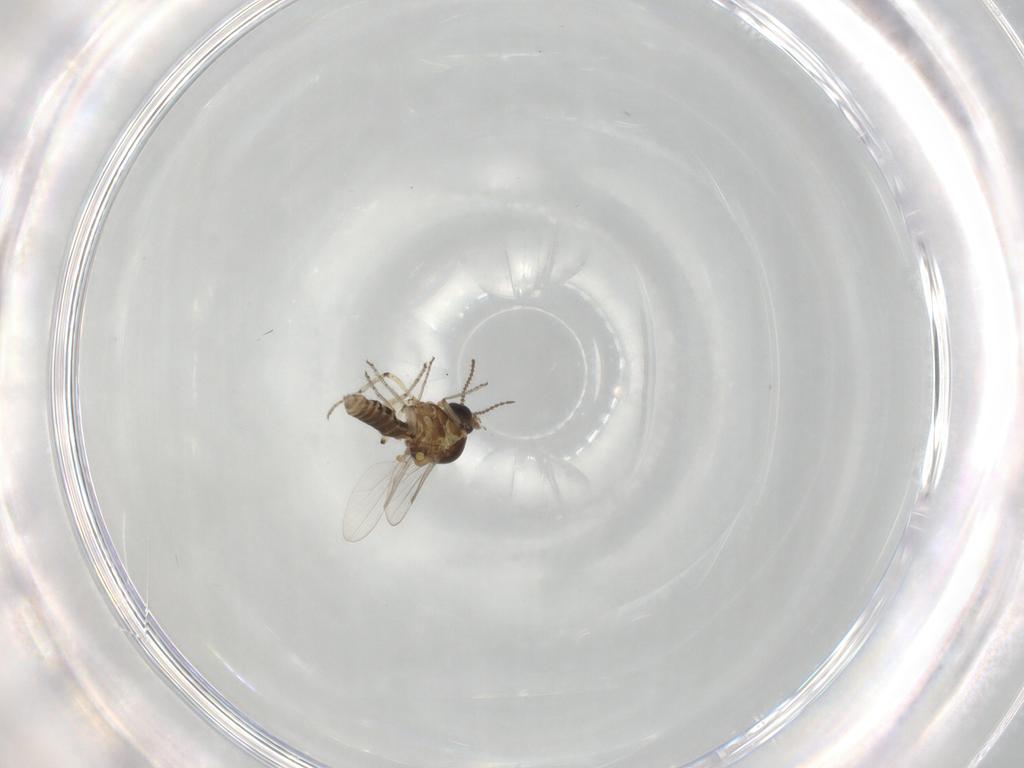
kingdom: Animalia
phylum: Arthropoda
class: Insecta
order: Diptera
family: Ceratopogonidae
